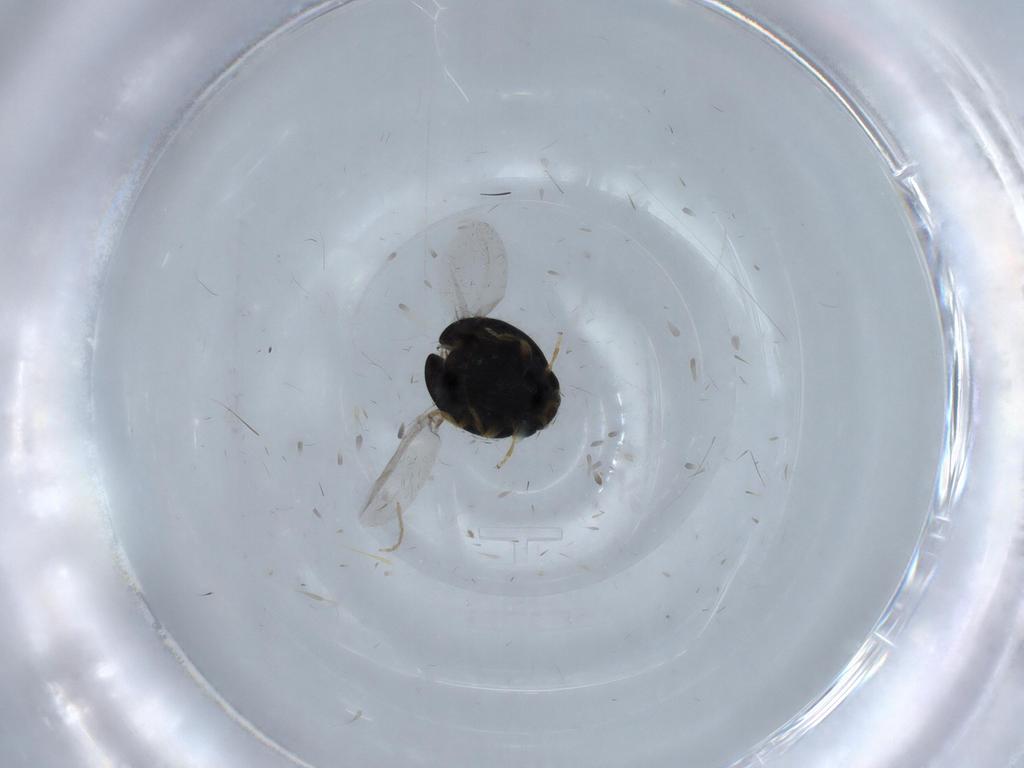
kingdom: Animalia
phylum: Arthropoda
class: Insecta
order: Coleoptera
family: Coccinellidae
